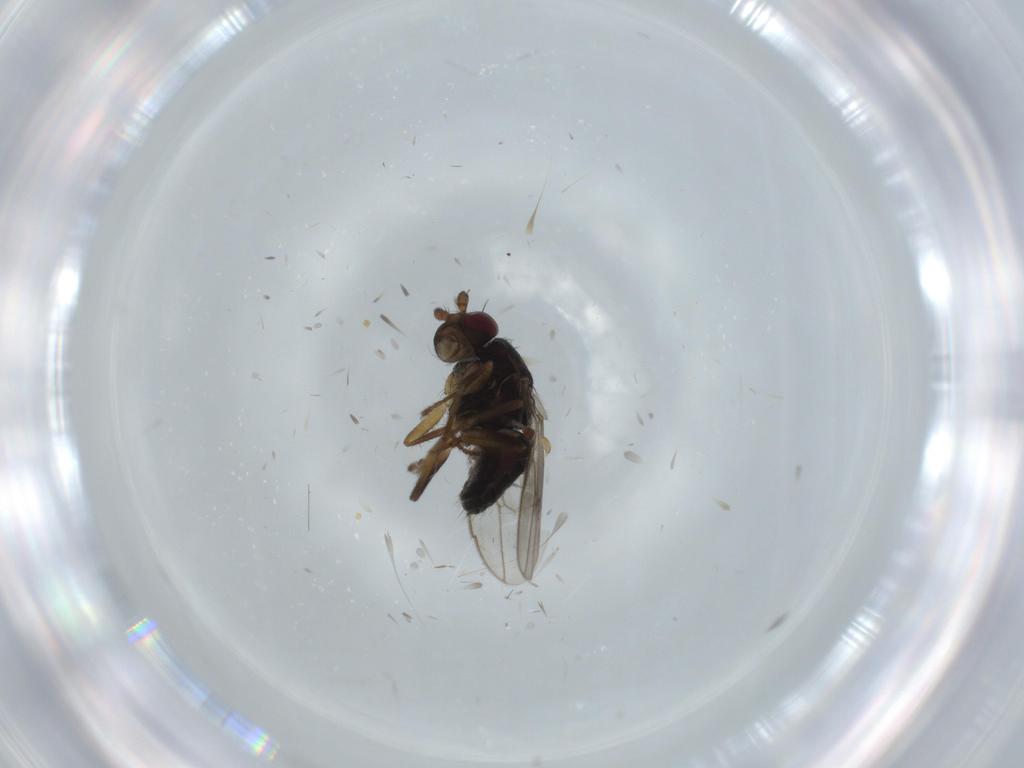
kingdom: Animalia
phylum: Arthropoda
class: Insecta
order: Diptera
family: Sphaeroceridae
